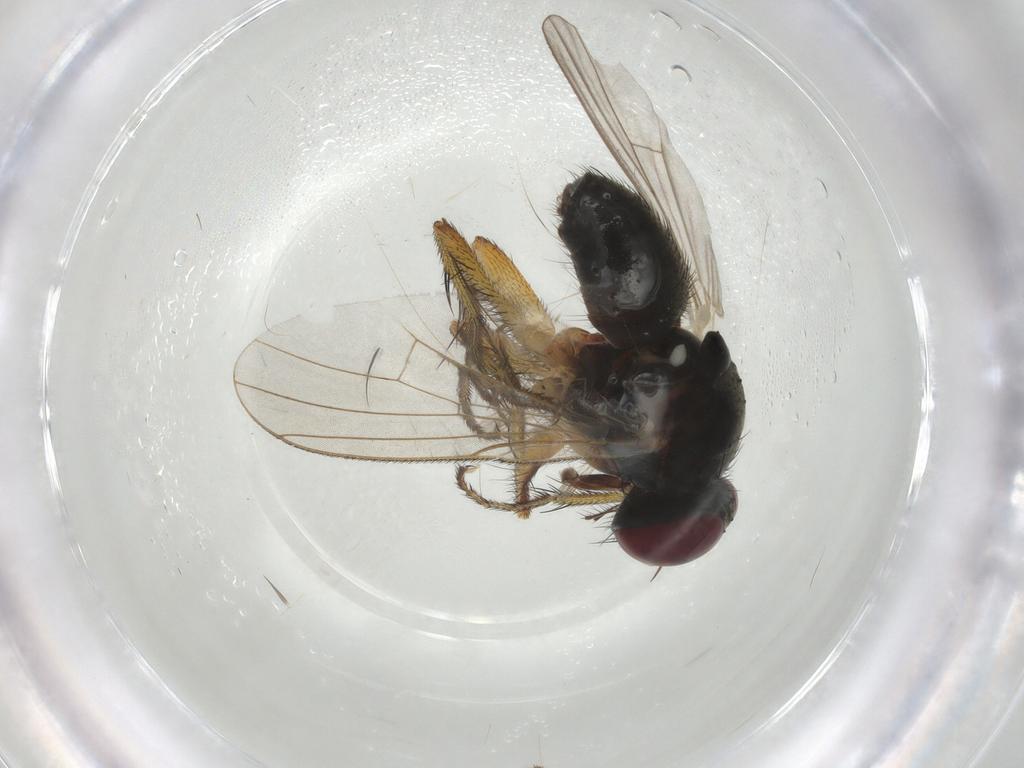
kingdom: Animalia
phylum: Arthropoda
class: Insecta
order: Diptera
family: Muscidae
